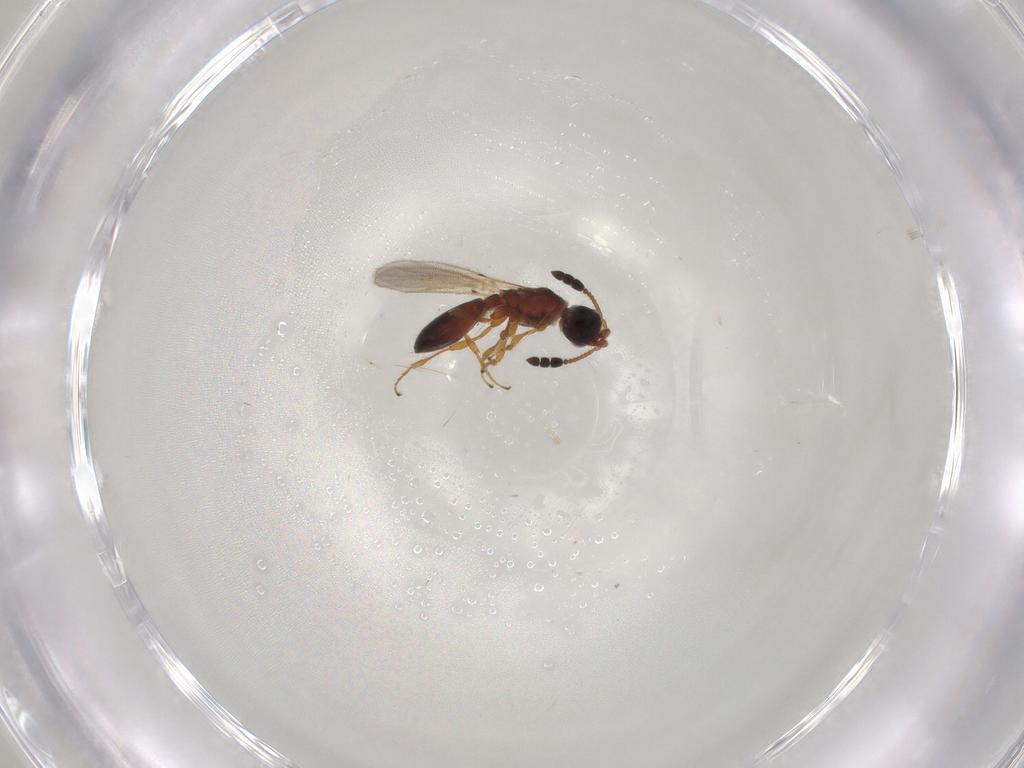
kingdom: Animalia
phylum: Arthropoda
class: Insecta
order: Hymenoptera
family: Diapriidae
